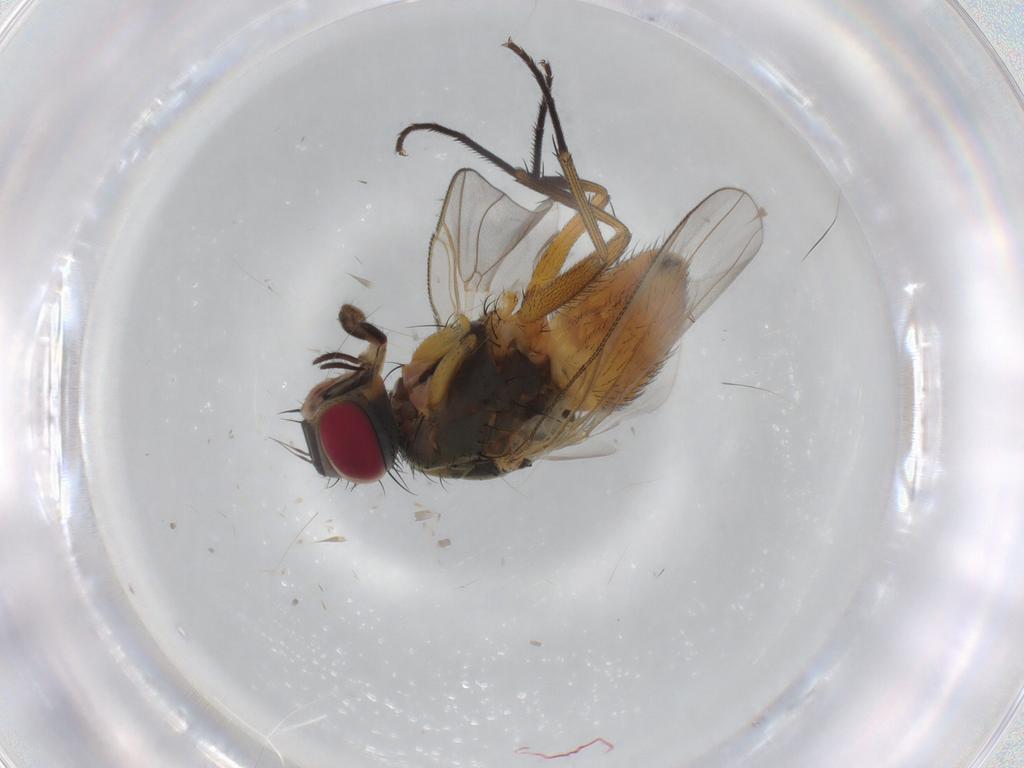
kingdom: Animalia
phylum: Arthropoda
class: Insecta
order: Diptera
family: Muscidae
